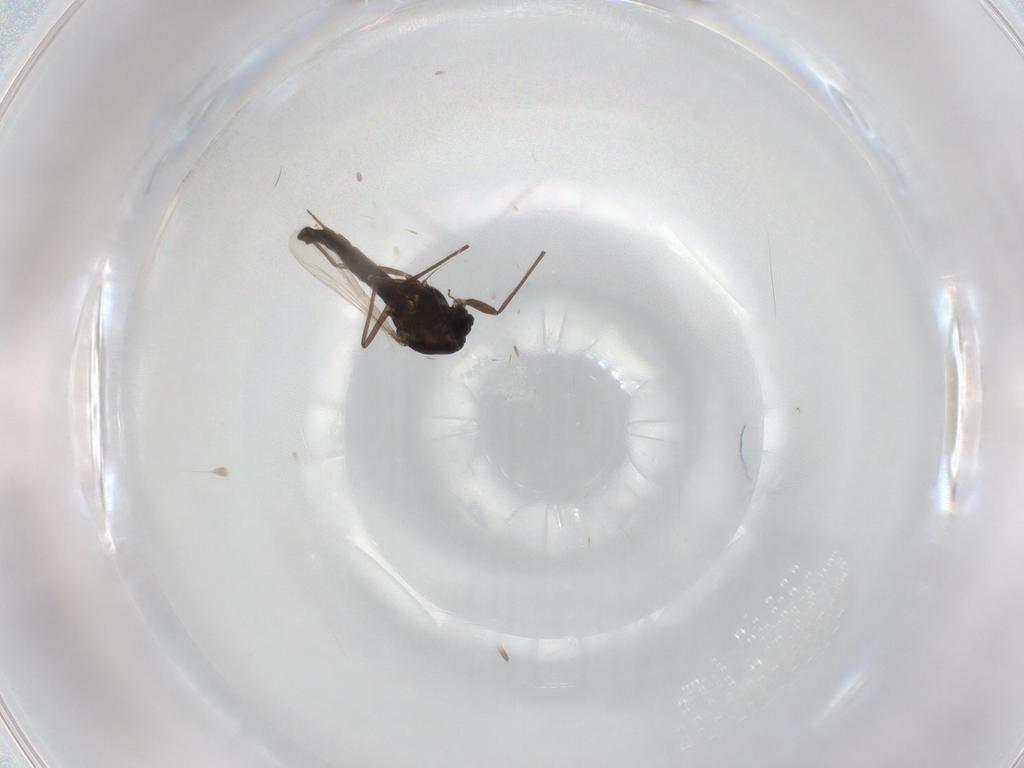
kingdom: Animalia
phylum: Arthropoda
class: Insecta
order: Diptera
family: Chironomidae
